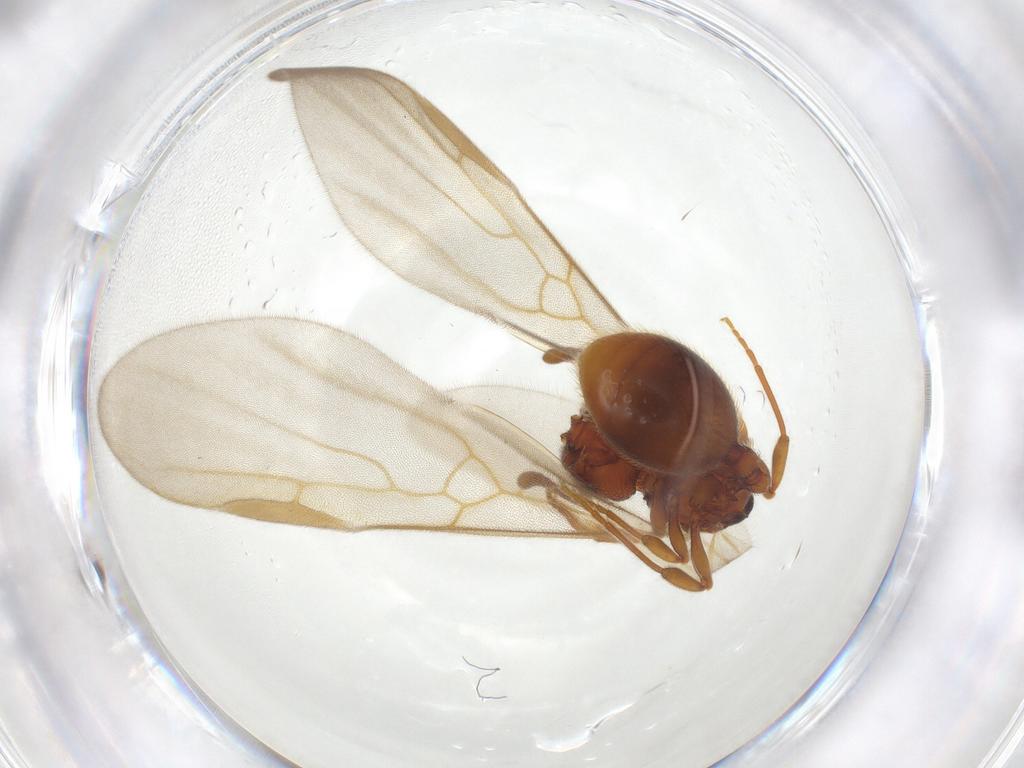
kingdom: Animalia
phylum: Arthropoda
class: Insecta
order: Hymenoptera
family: Formicidae
